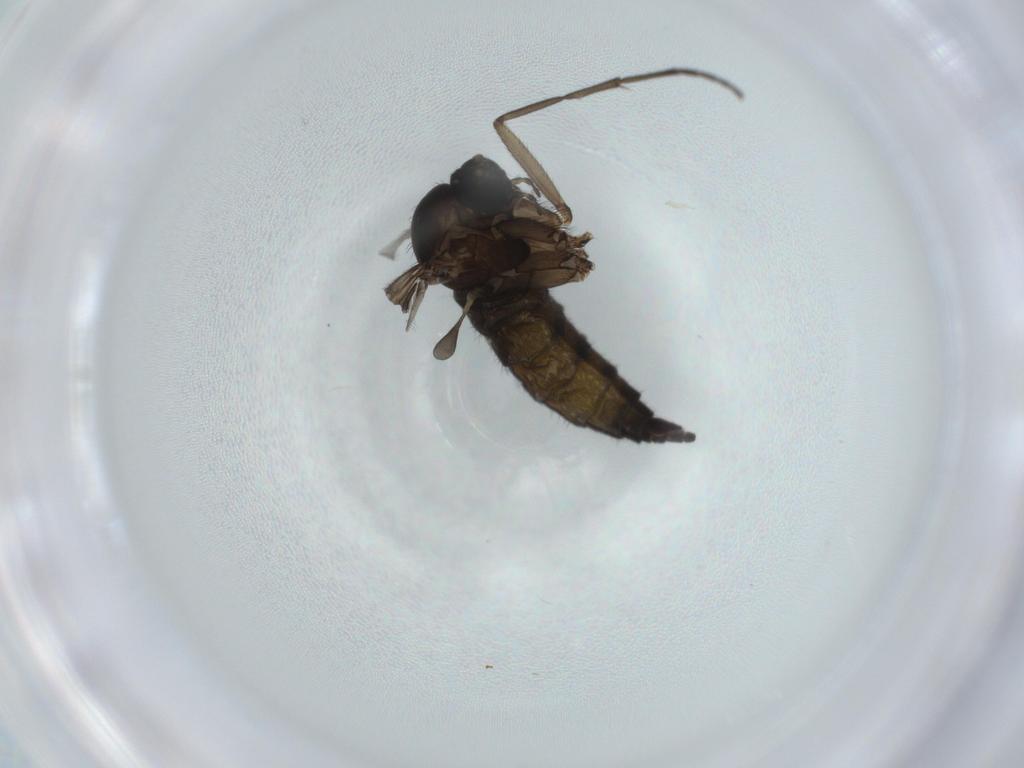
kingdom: Animalia
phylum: Arthropoda
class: Insecta
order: Diptera
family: Sciaridae
